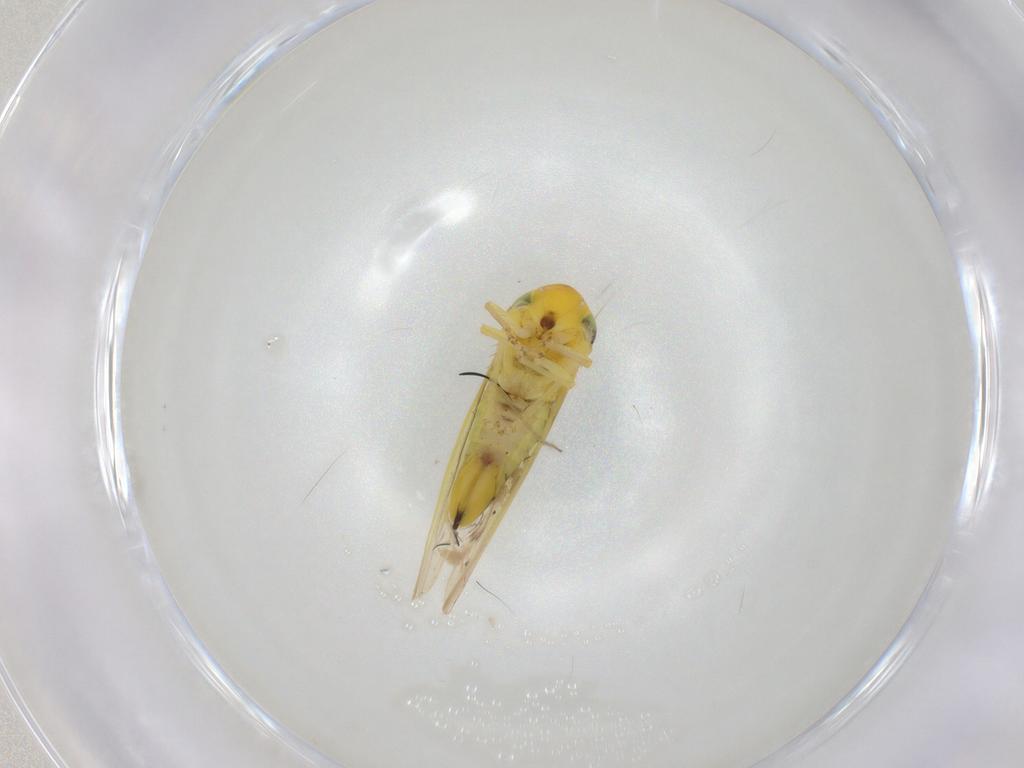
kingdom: Animalia
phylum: Arthropoda
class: Insecta
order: Hemiptera
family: Cicadellidae
